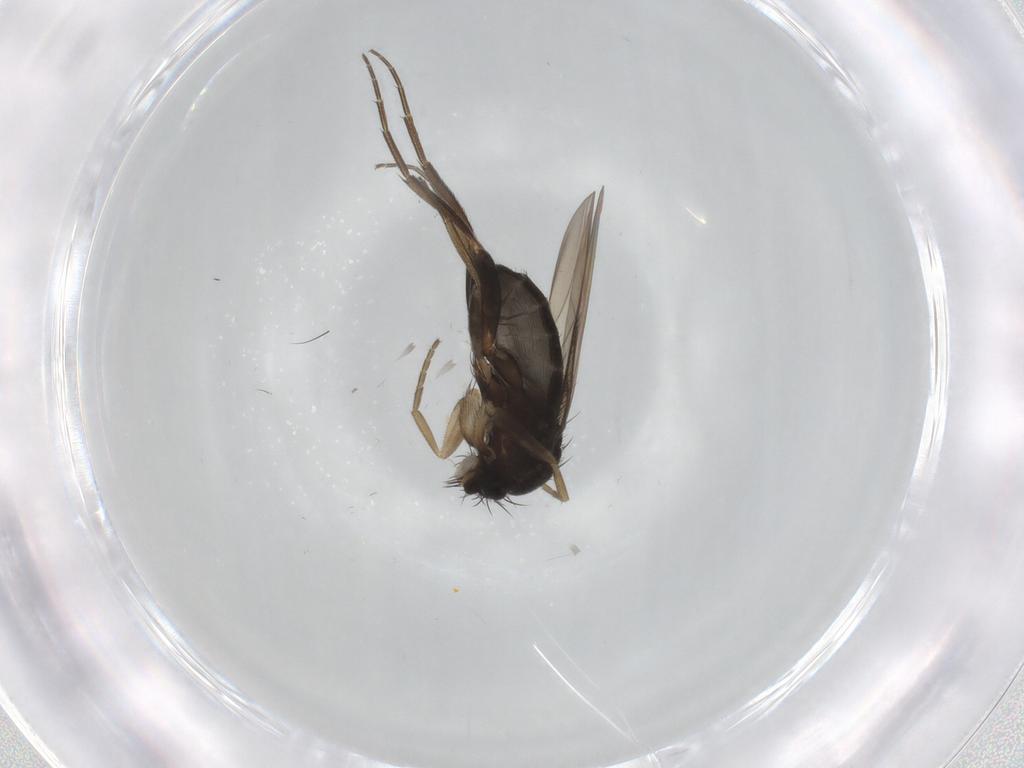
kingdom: Animalia
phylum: Arthropoda
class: Insecta
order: Diptera
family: Phoridae
